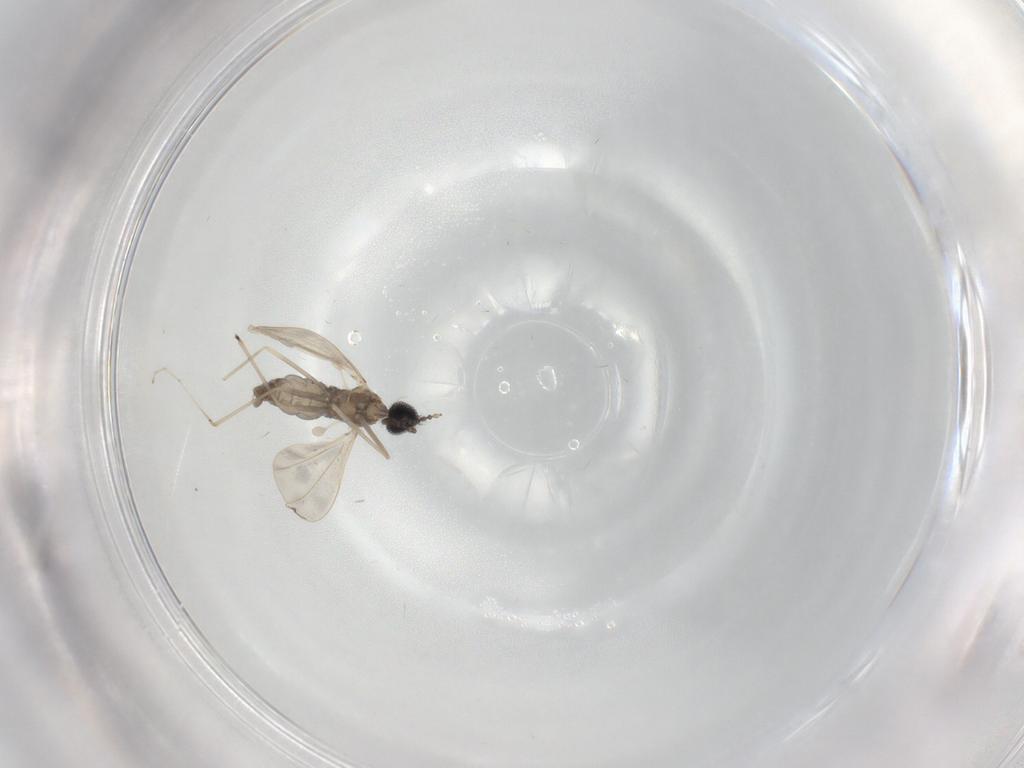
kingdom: Animalia
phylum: Arthropoda
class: Insecta
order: Diptera
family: Cecidomyiidae
